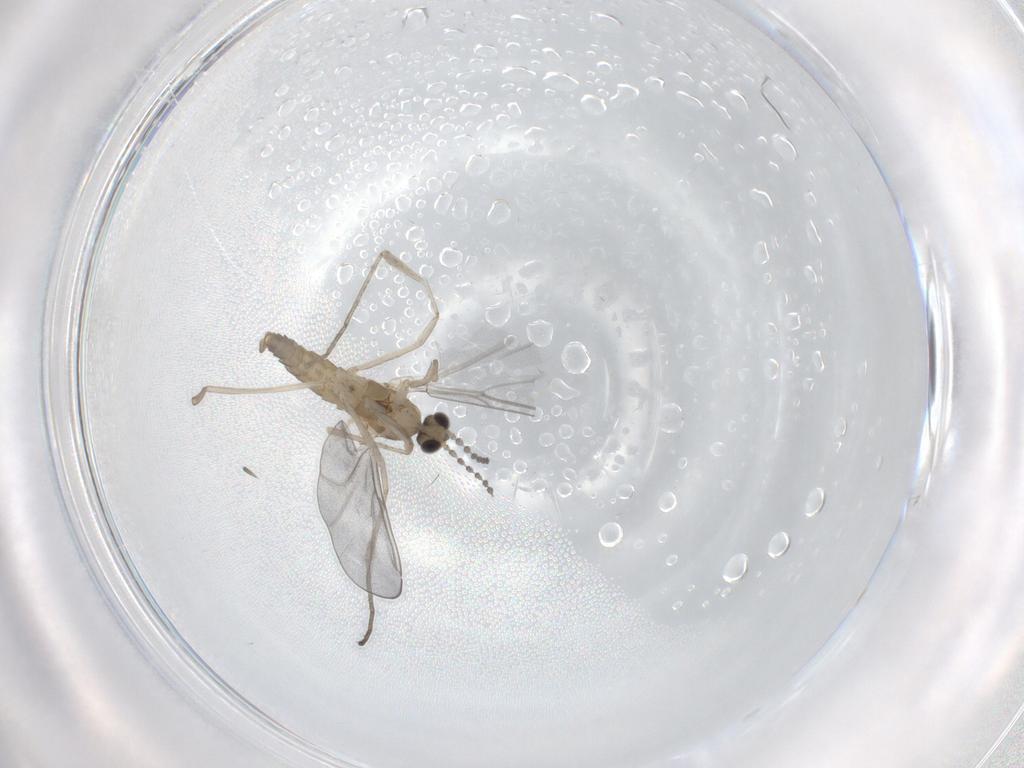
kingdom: Animalia
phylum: Arthropoda
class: Insecta
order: Diptera
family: Cecidomyiidae
